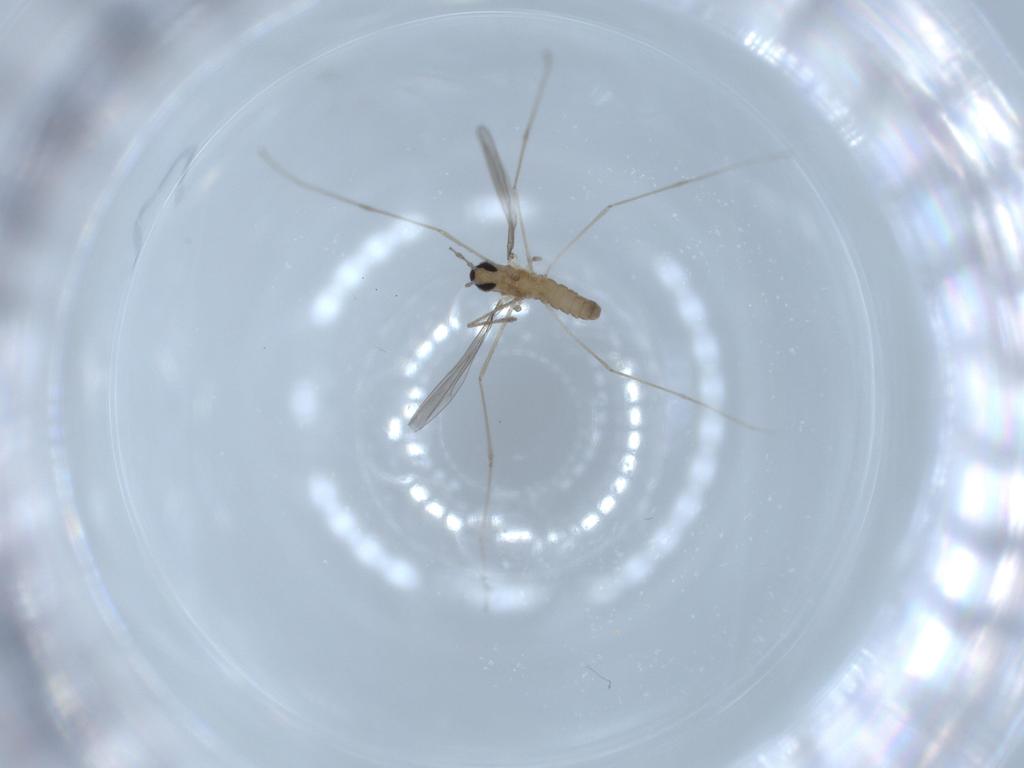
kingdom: Animalia
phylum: Arthropoda
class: Insecta
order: Diptera
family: Cecidomyiidae
